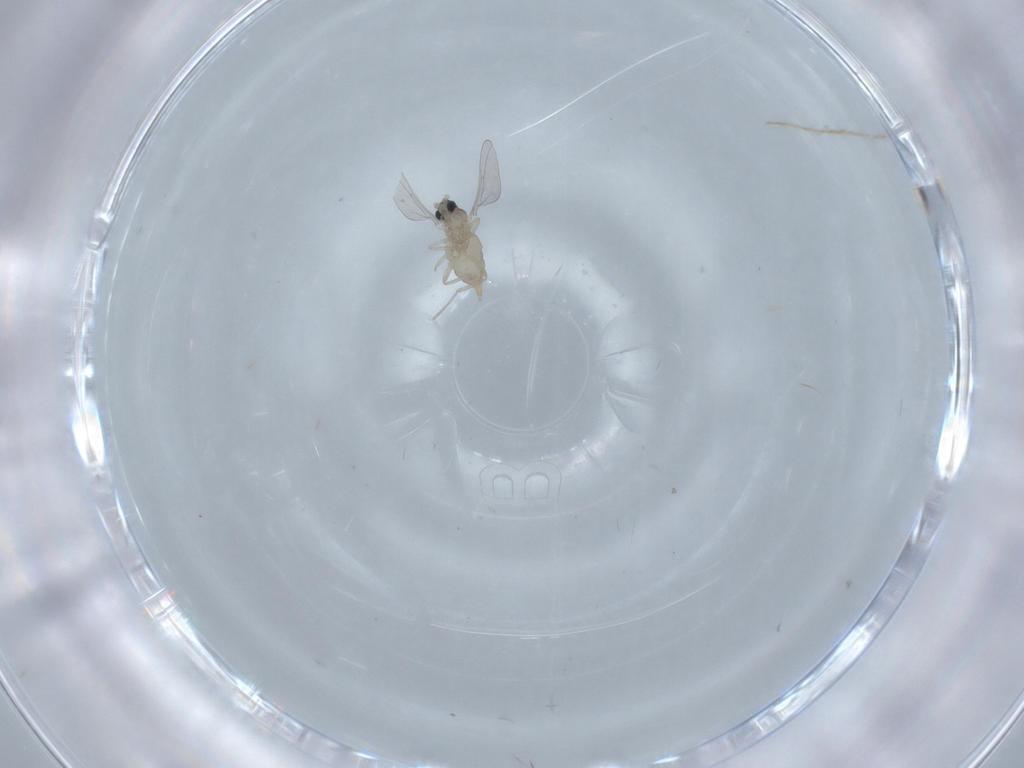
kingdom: Animalia
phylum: Arthropoda
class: Insecta
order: Diptera
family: Cecidomyiidae
